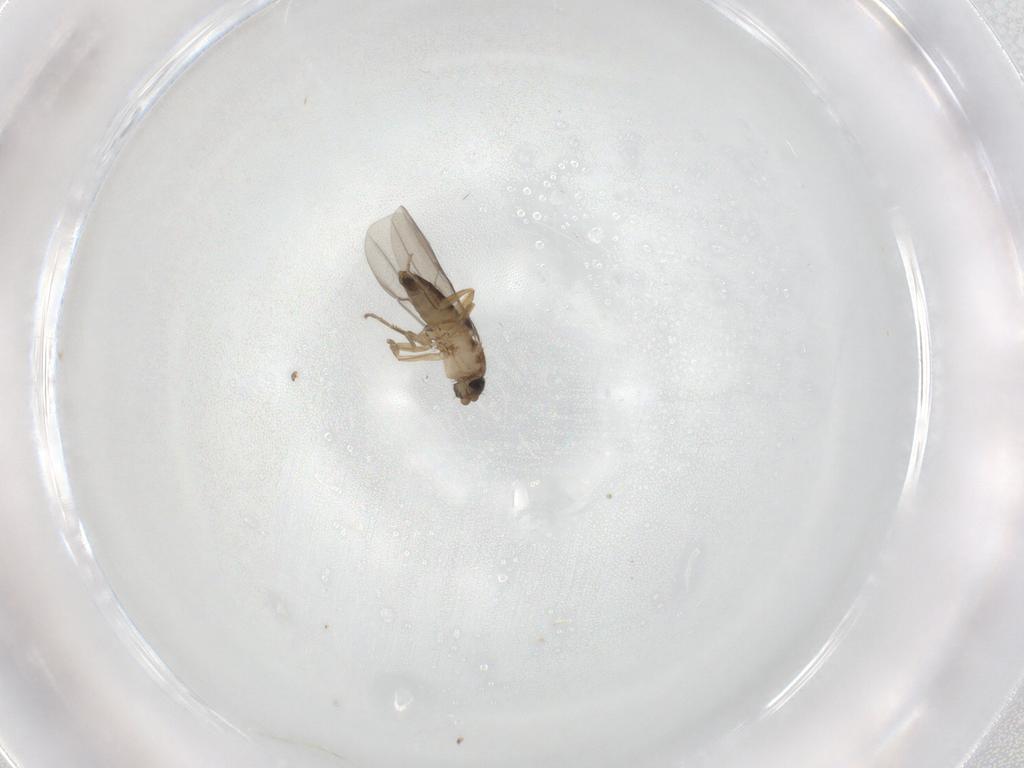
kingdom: Animalia
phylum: Arthropoda
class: Insecta
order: Diptera
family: Phoridae
